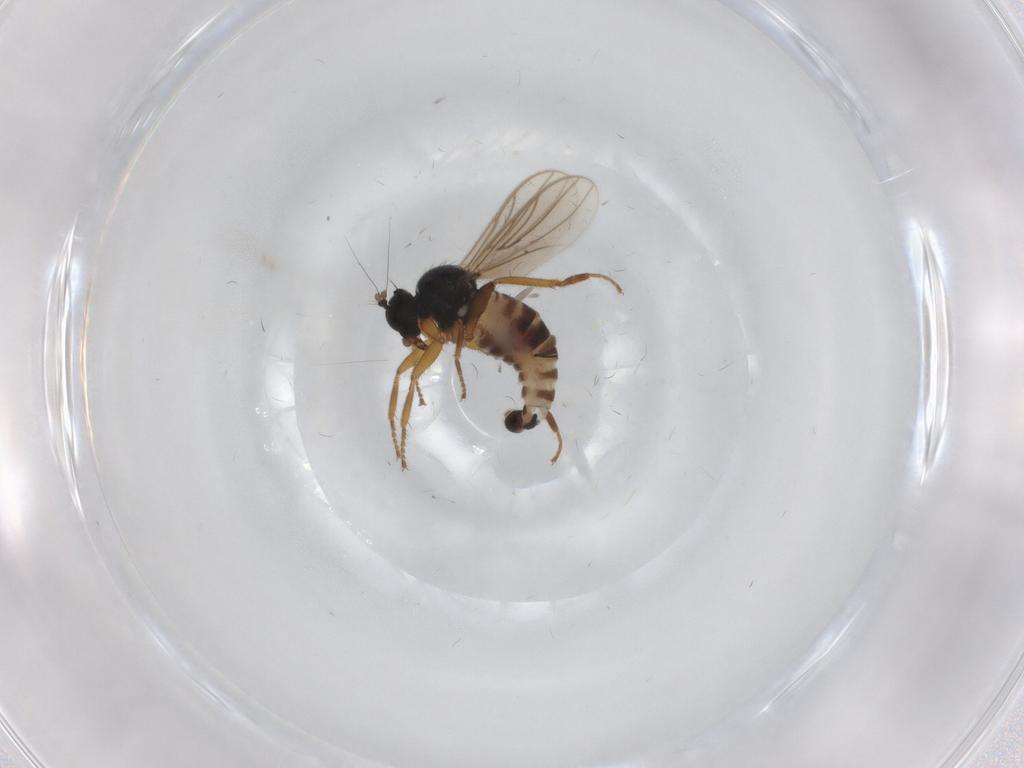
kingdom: Animalia
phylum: Arthropoda
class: Insecta
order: Diptera
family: Hybotidae
